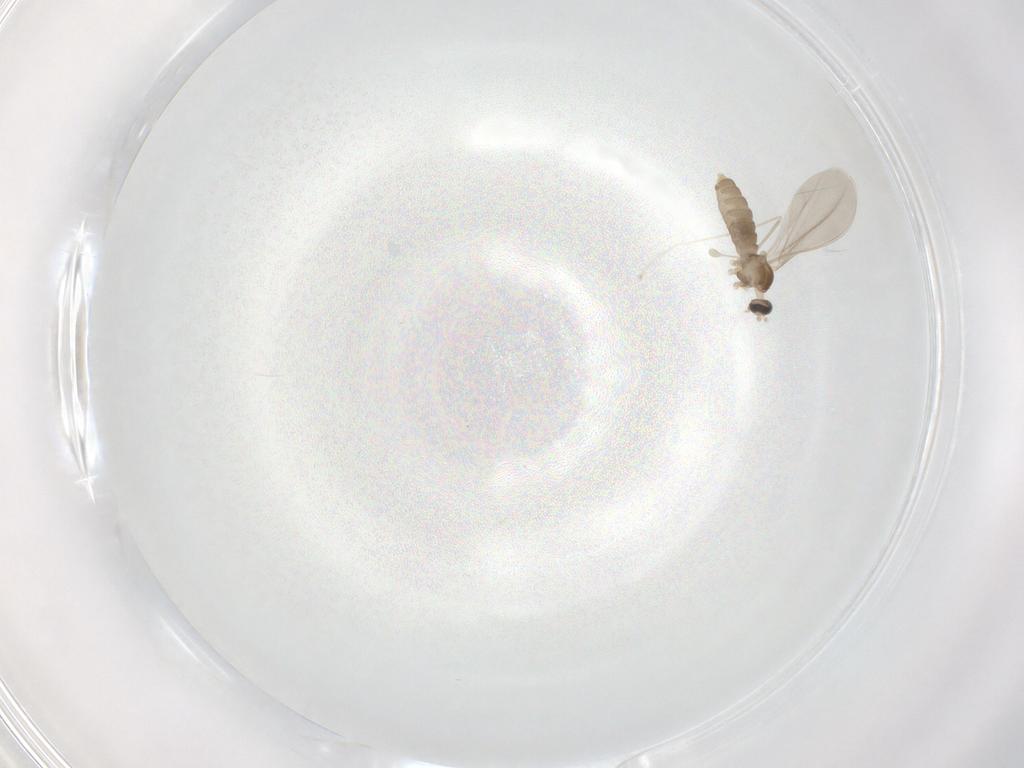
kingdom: Animalia
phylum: Arthropoda
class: Insecta
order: Diptera
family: Cecidomyiidae
